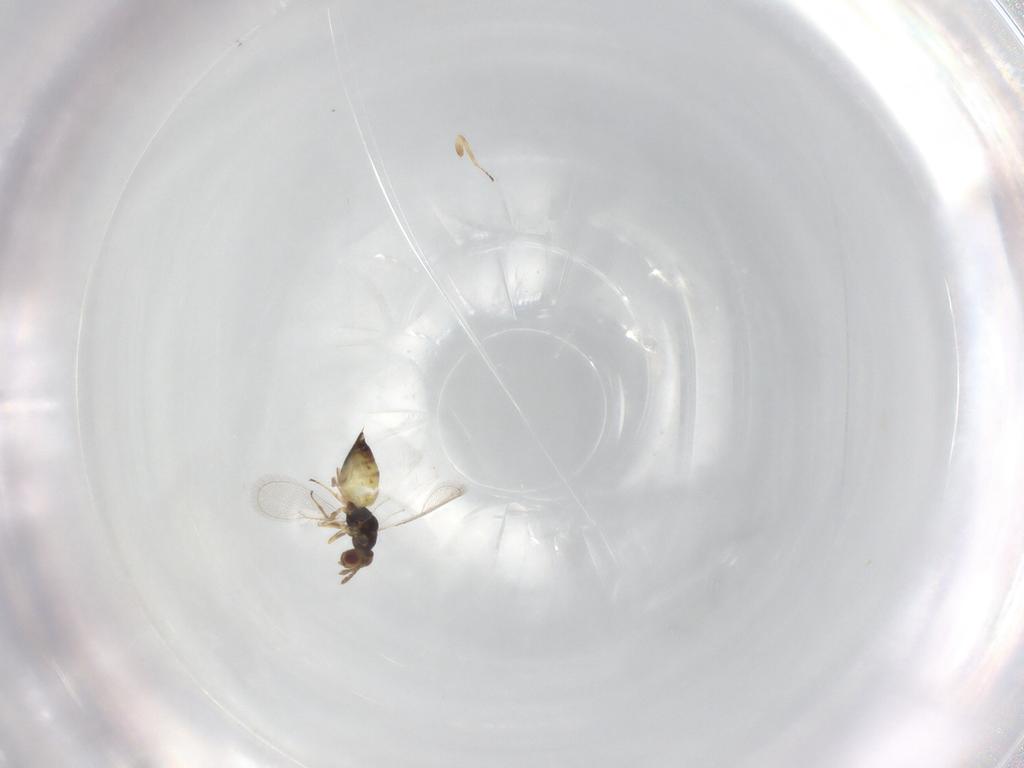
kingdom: Animalia
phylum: Arthropoda
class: Insecta
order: Hymenoptera
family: Eulophidae
